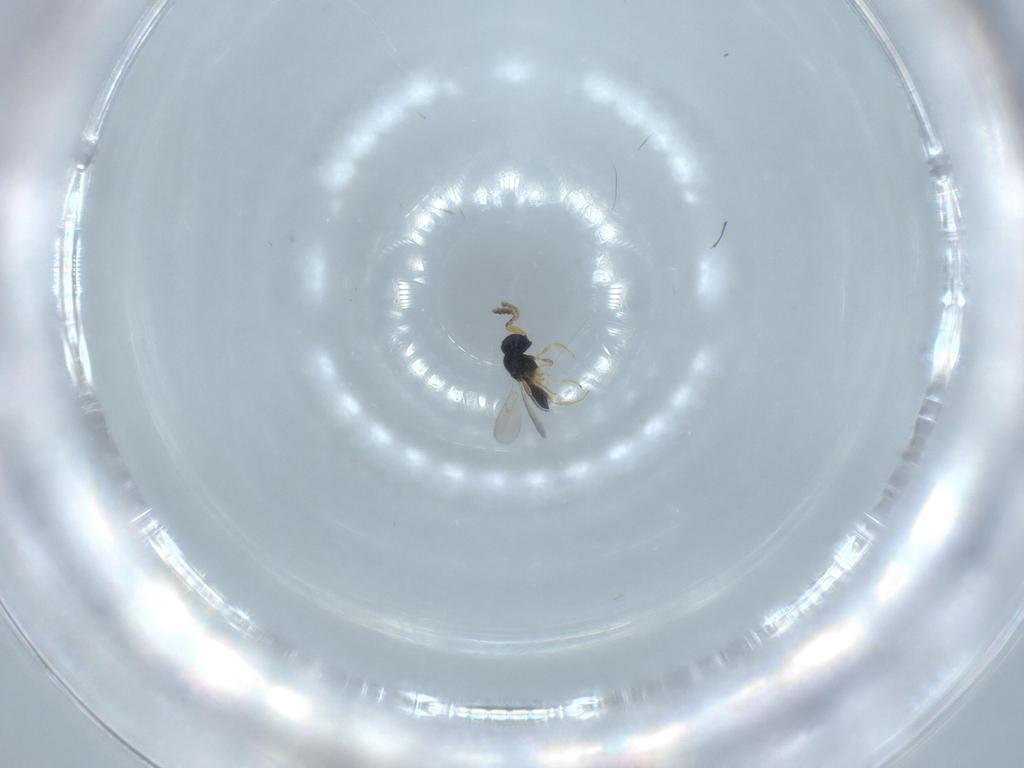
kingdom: Animalia
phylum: Arthropoda
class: Insecta
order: Hymenoptera
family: Scelionidae
